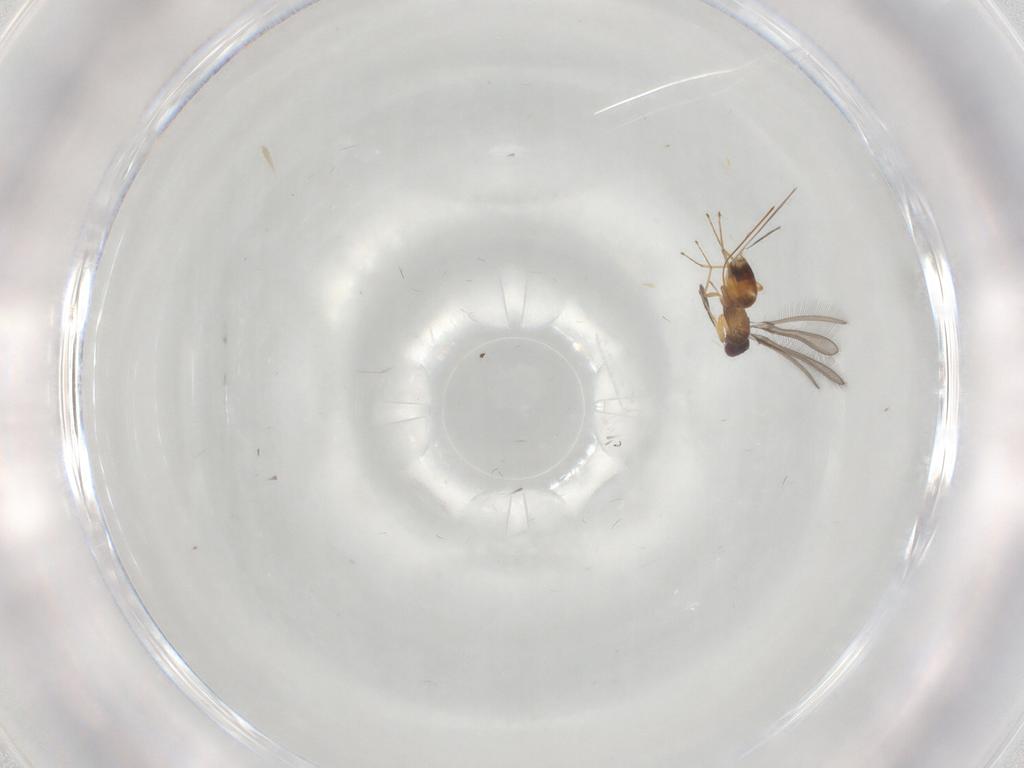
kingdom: Animalia
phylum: Arthropoda
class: Insecta
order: Hymenoptera
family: Mymaridae
